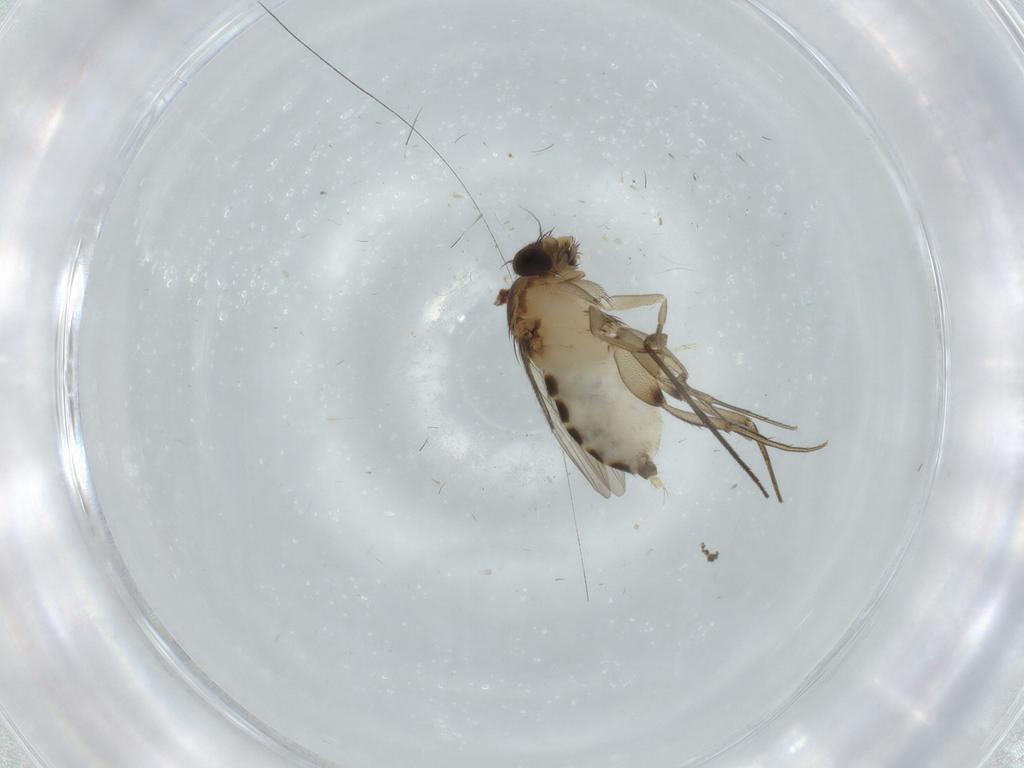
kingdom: Animalia
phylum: Arthropoda
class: Insecta
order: Diptera
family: Phoridae
